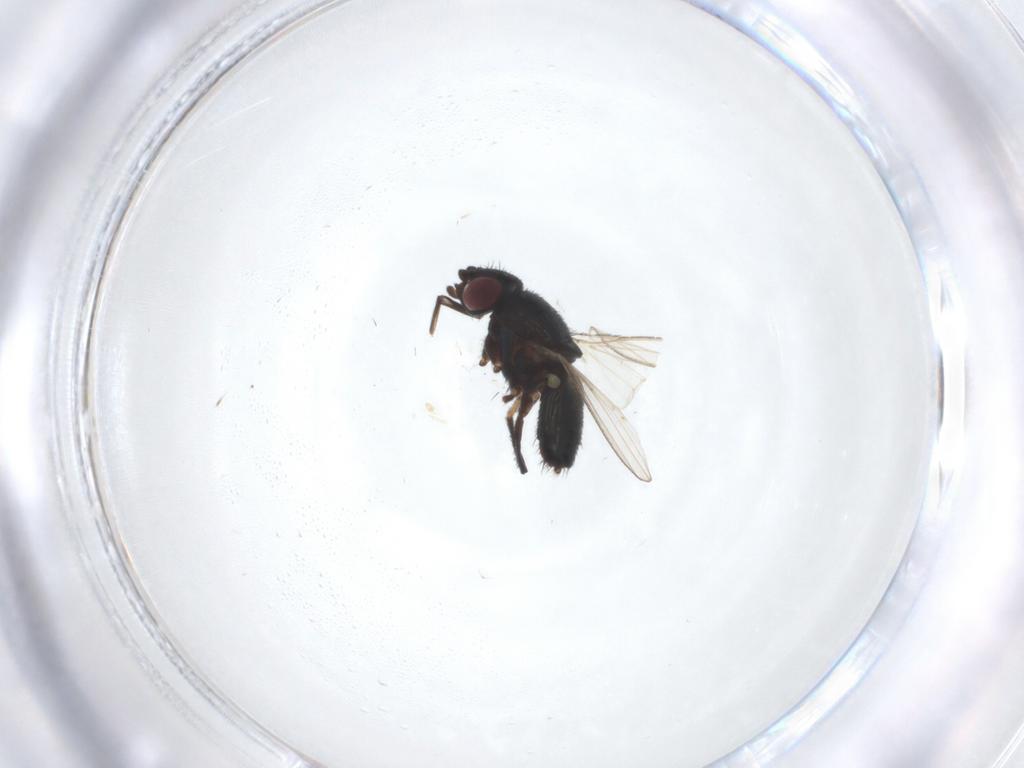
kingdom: Animalia
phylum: Arthropoda
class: Insecta
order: Diptera
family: Milichiidae
